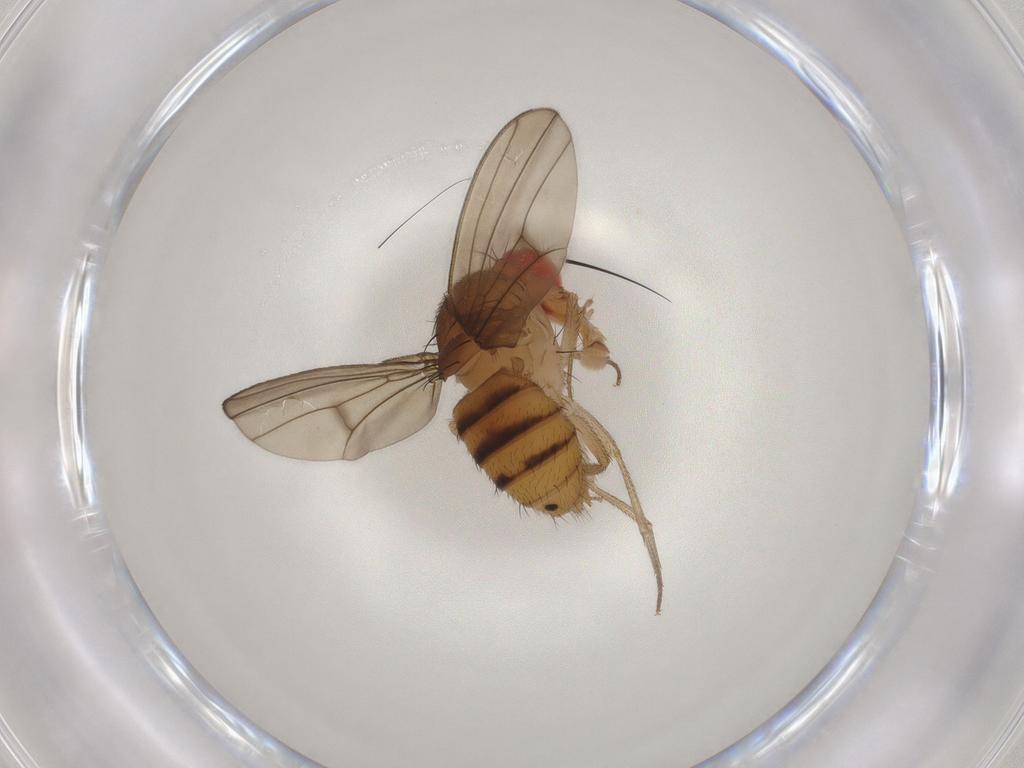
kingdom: Animalia
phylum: Arthropoda
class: Insecta
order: Diptera
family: Drosophilidae
